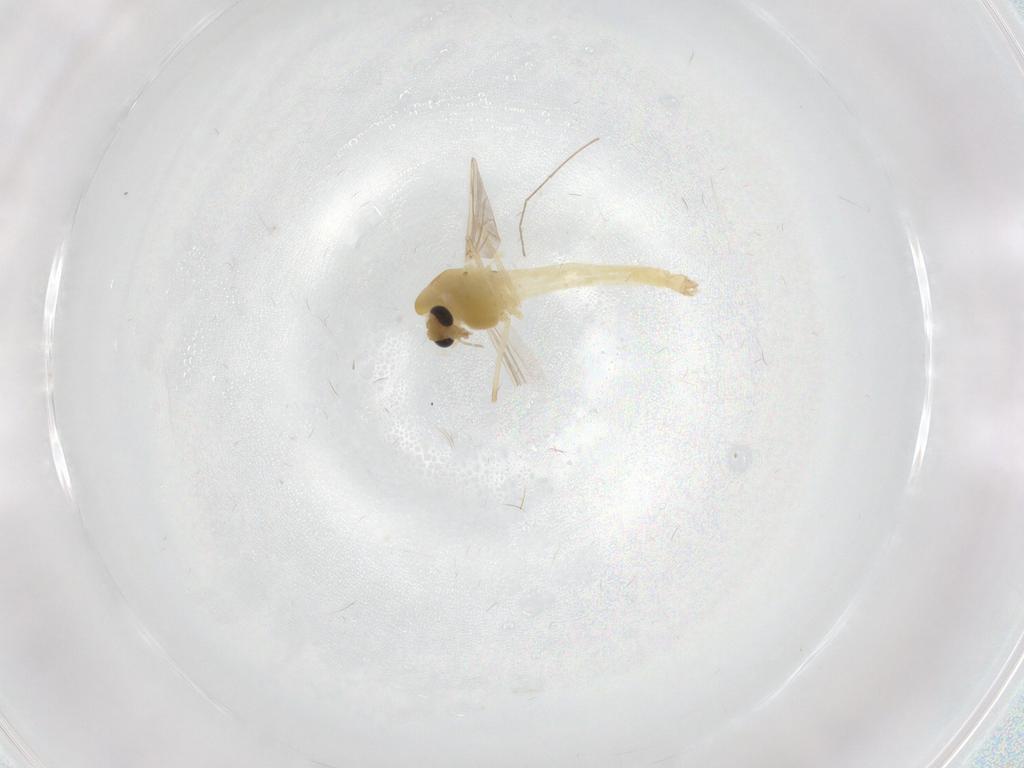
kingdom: Animalia
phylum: Arthropoda
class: Insecta
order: Diptera
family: Chironomidae
